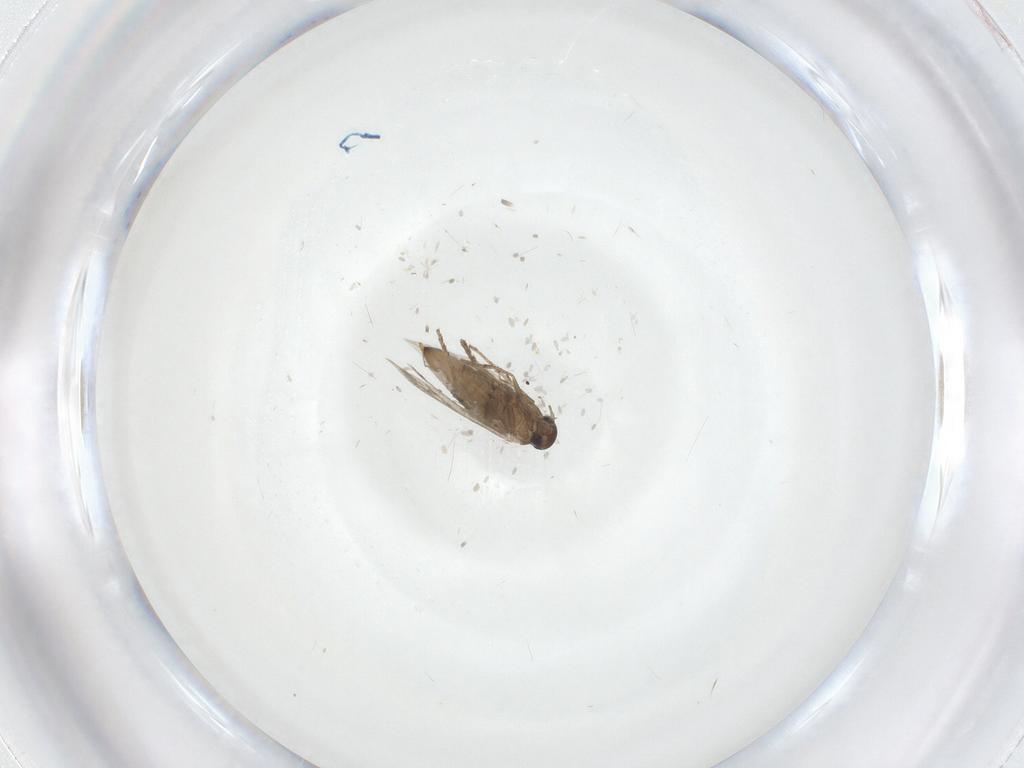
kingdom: Animalia
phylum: Arthropoda
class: Insecta
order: Lepidoptera
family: Heliozelidae
